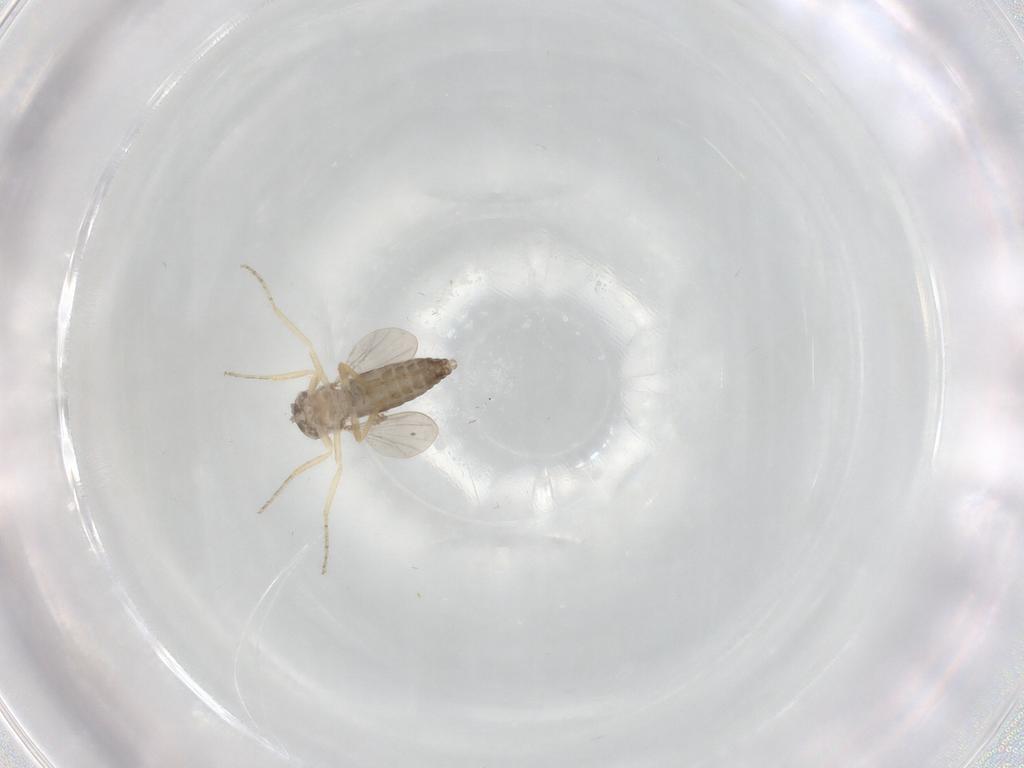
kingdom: Animalia
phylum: Arthropoda
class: Insecta
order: Diptera
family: Ceratopogonidae
